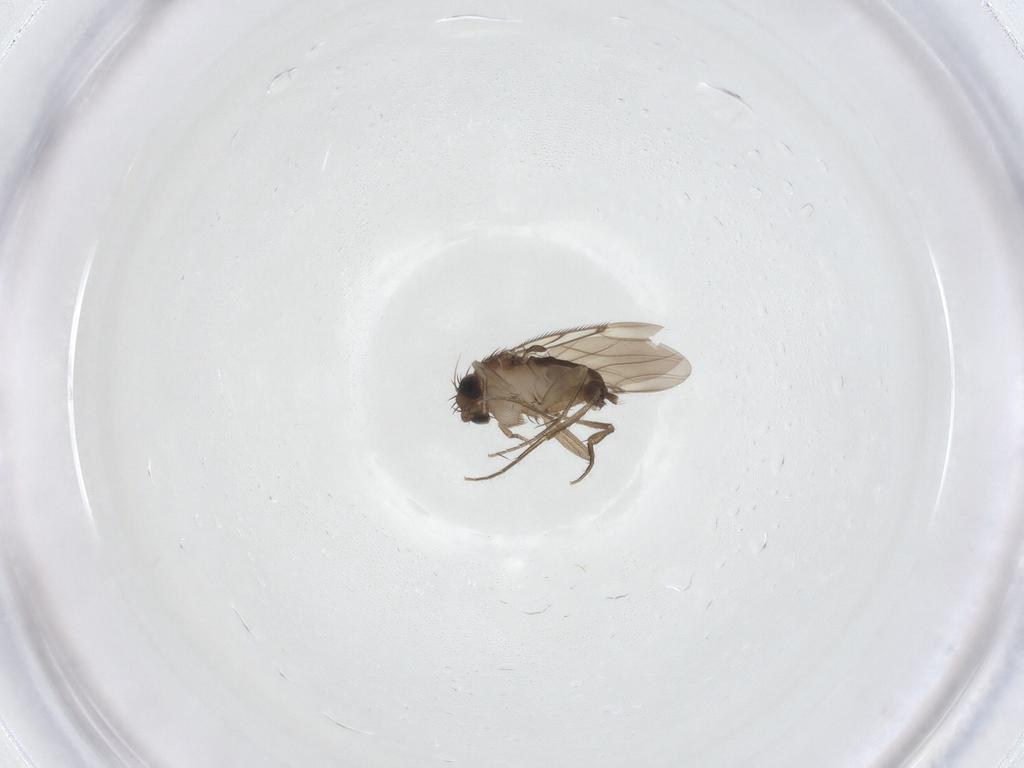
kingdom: Animalia
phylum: Arthropoda
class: Insecta
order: Diptera
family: Phoridae
